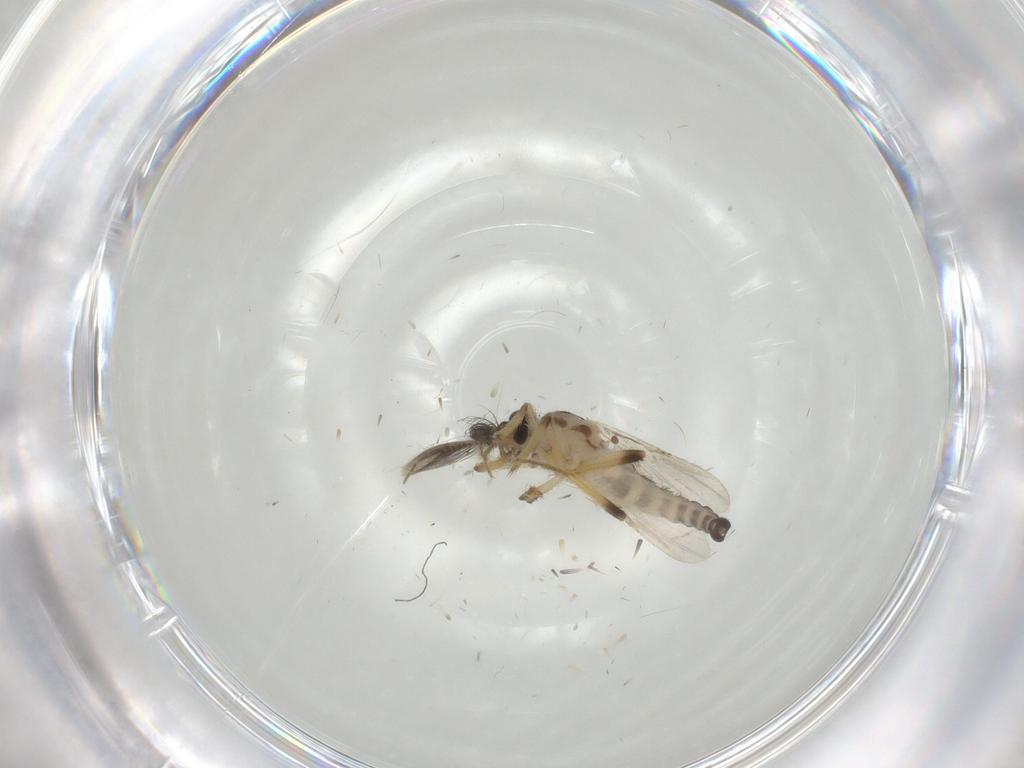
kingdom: Animalia
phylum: Arthropoda
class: Insecta
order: Diptera
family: Ceratopogonidae
